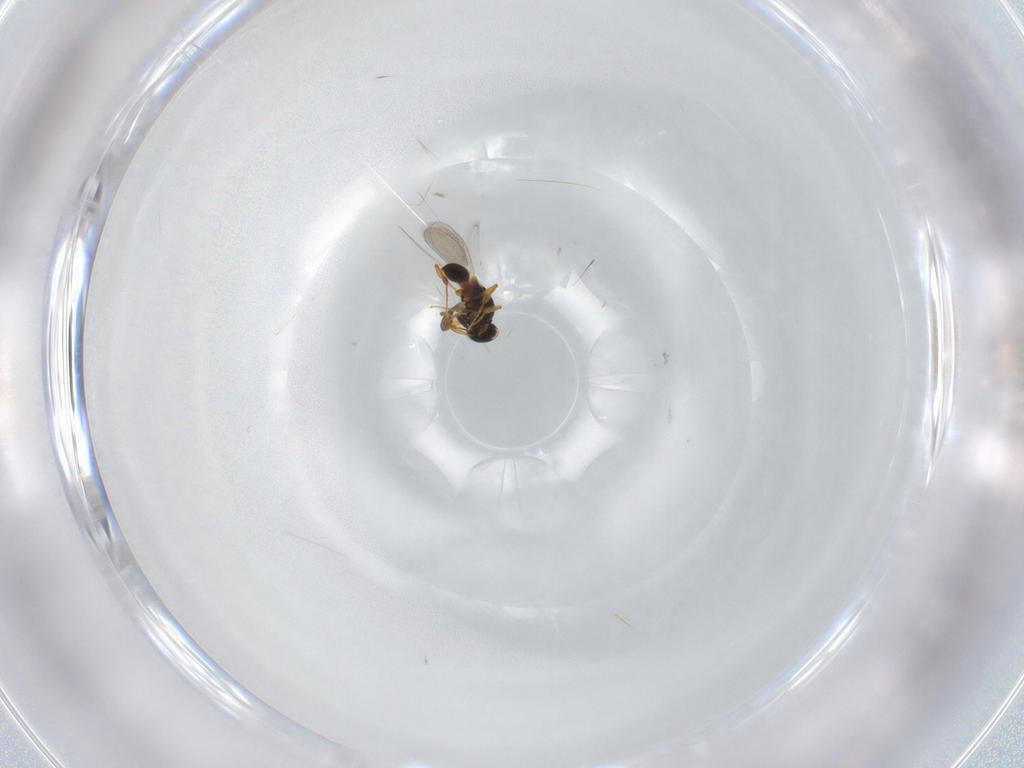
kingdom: Animalia
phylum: Arthropoda
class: Insecta
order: Hymenoptera
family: Platygastridae
